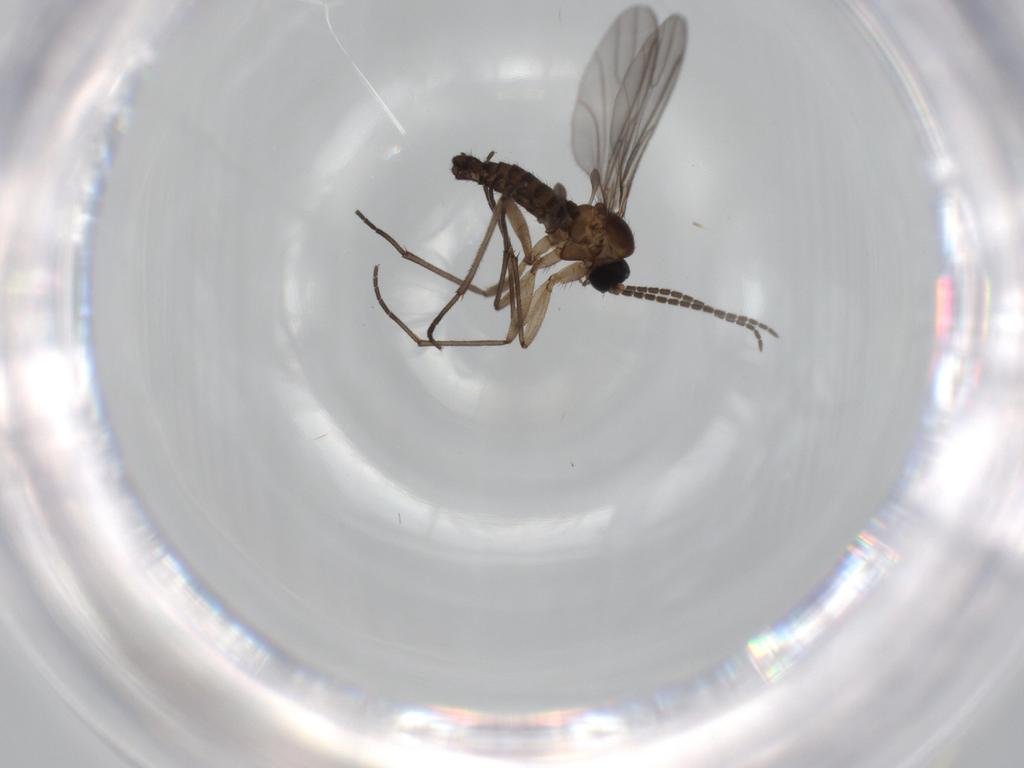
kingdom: Animalia
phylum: Arthropoda
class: Insecta
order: Diptera
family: Sciaridae
